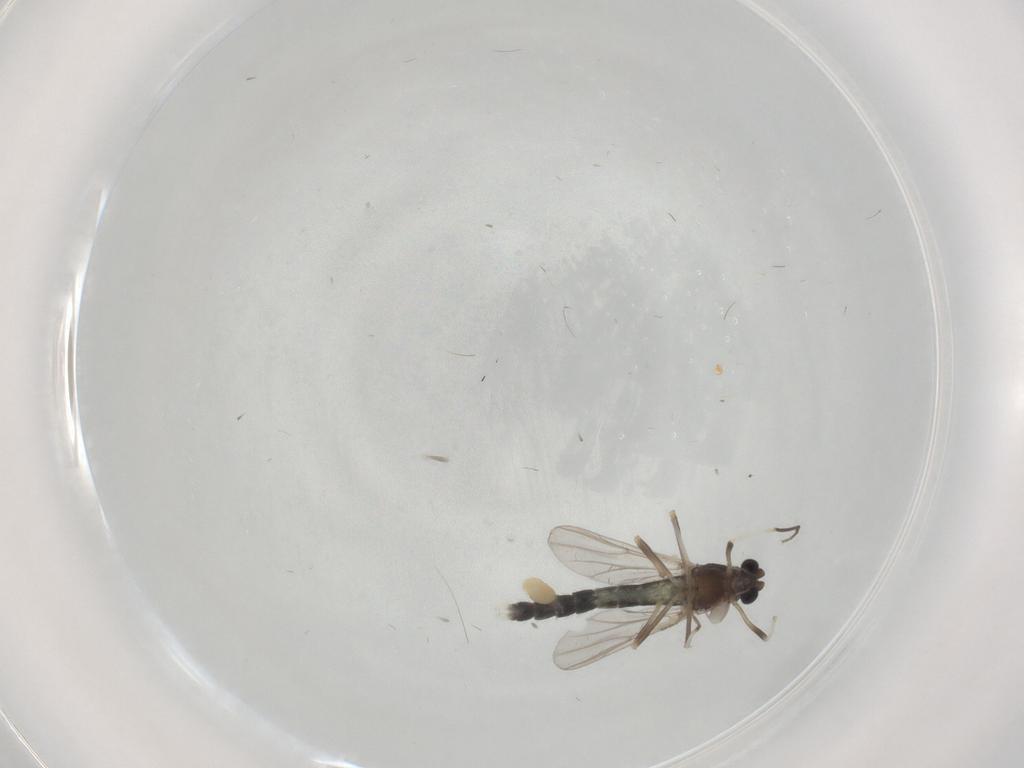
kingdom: Animalia
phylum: Arthropoda
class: Insecta
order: Diptera
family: Chironomidae
